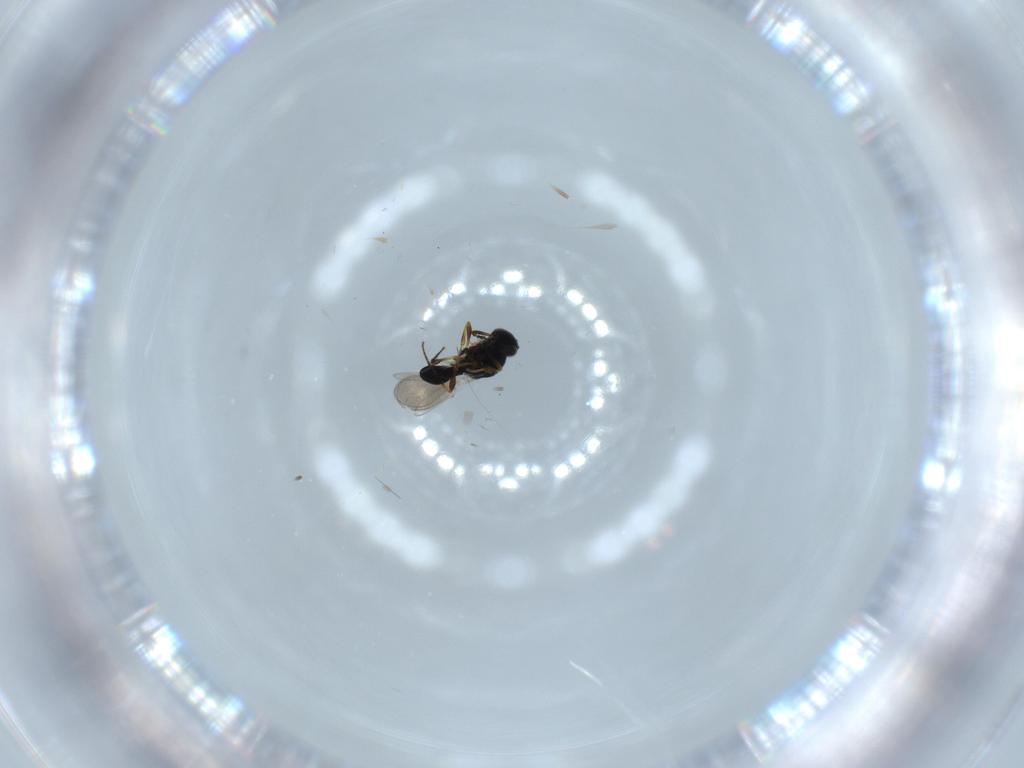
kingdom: Animalia
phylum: Arthropoda
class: Insecta
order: Hymenoptera
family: Platygastridae
